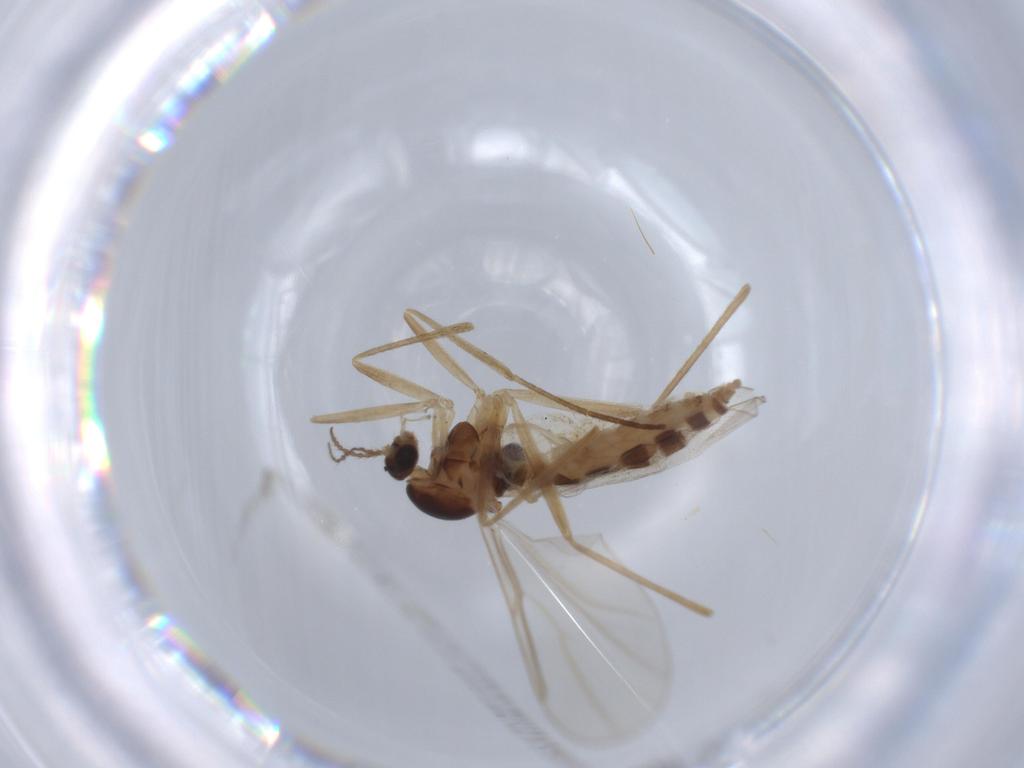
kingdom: Animalia
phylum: Arthropoda
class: Insecta
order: Diptera
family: Cecidomyiidae
